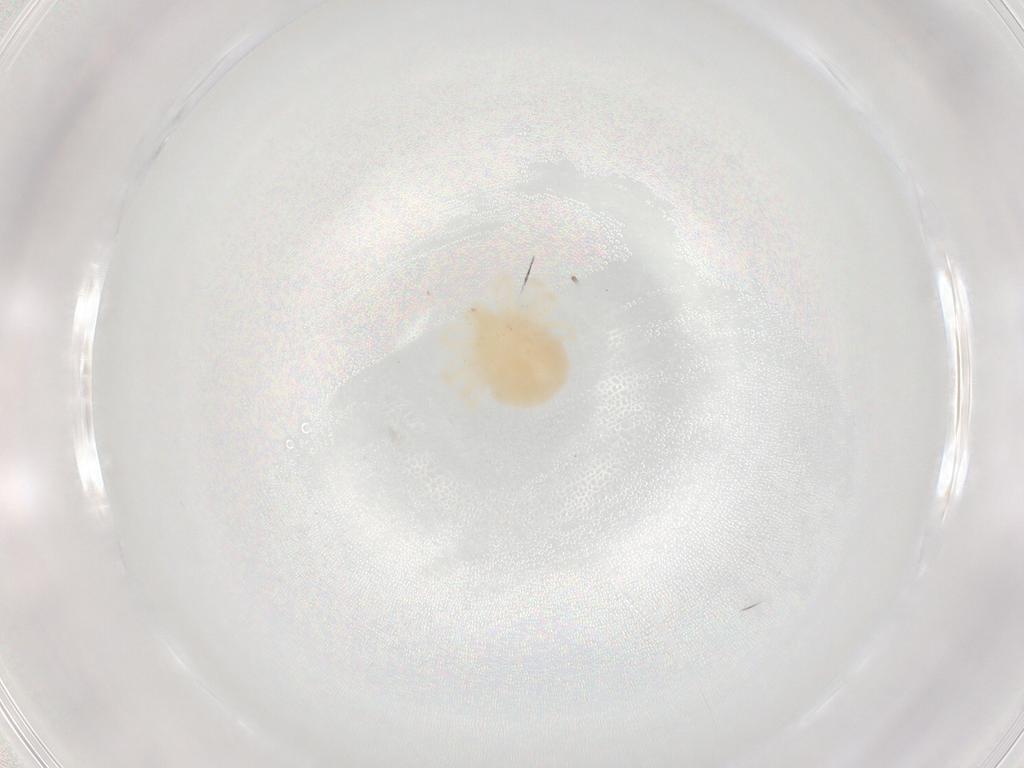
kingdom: Animalia
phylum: Arthropoda
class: Arachnida
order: Trombidiformes
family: Anystidae
